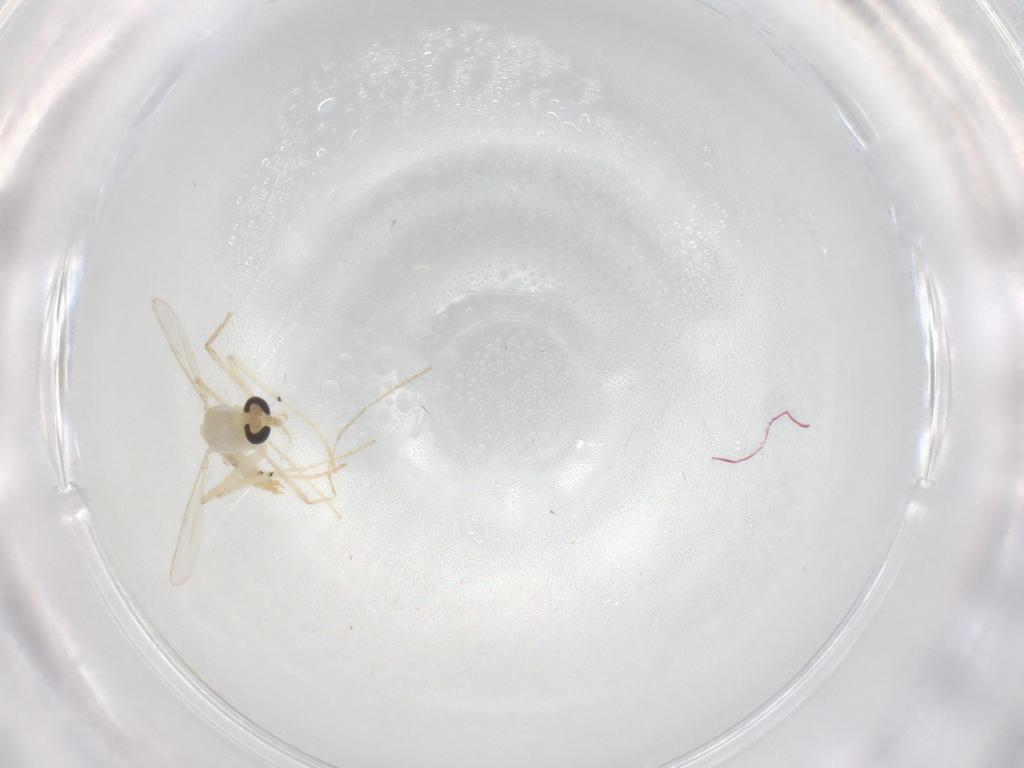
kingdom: Animalia
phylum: Arthropoda
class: Insecta
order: Diptera
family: Chironomidae
